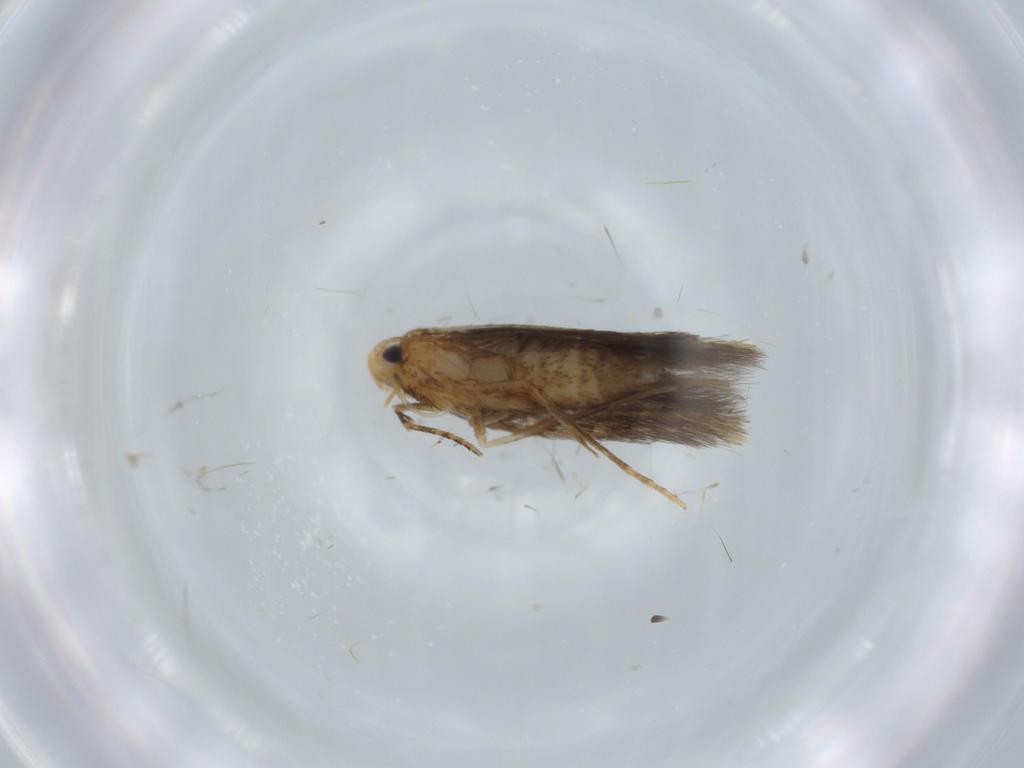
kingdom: Animalia
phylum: Arthropoda
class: Insecta
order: Lepidoptera
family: Tischeriidae
